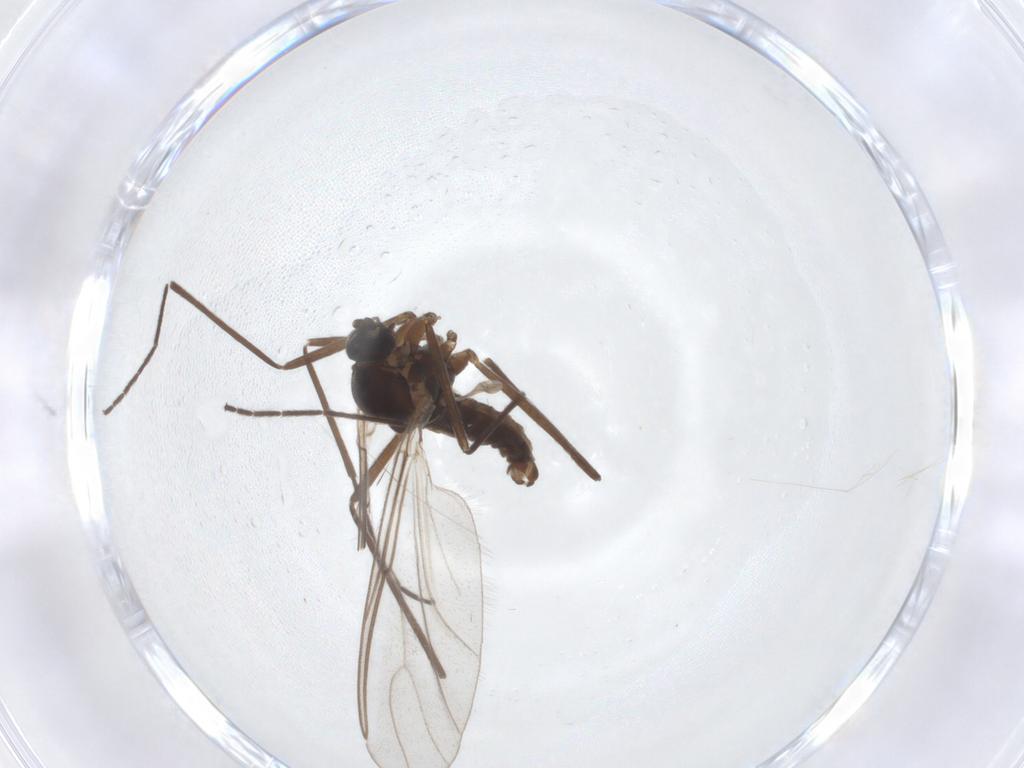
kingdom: Animalia
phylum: Arthropoda
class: Insecta
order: Diptera
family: Cecidomyiidae
